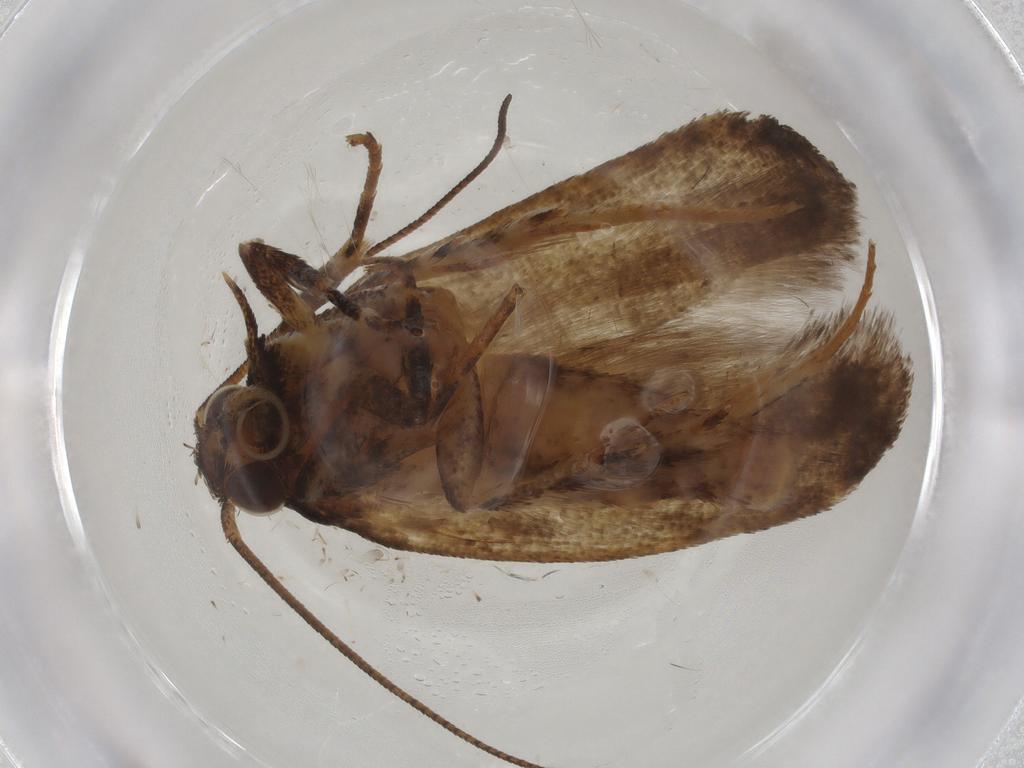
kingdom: Animalia
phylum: Arthropoda
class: Insecta
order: Lepidoptera
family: Gelechiidae
